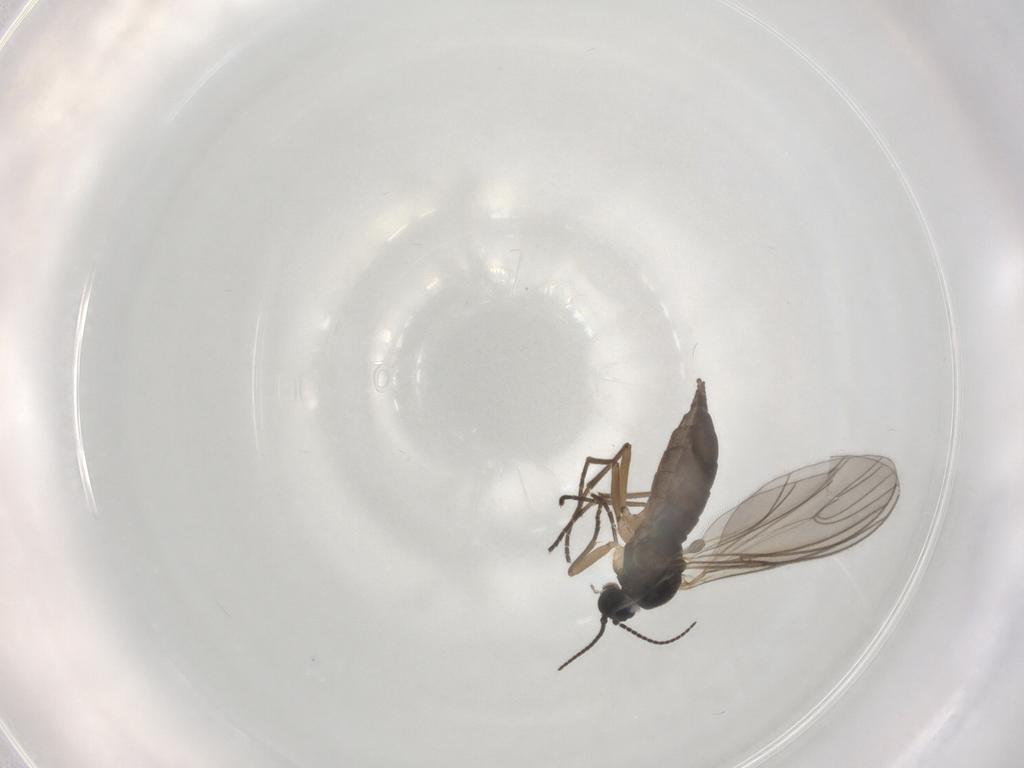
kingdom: Animalia
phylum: Arthropoda
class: Insecta
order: Diptera
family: Sciaridae
